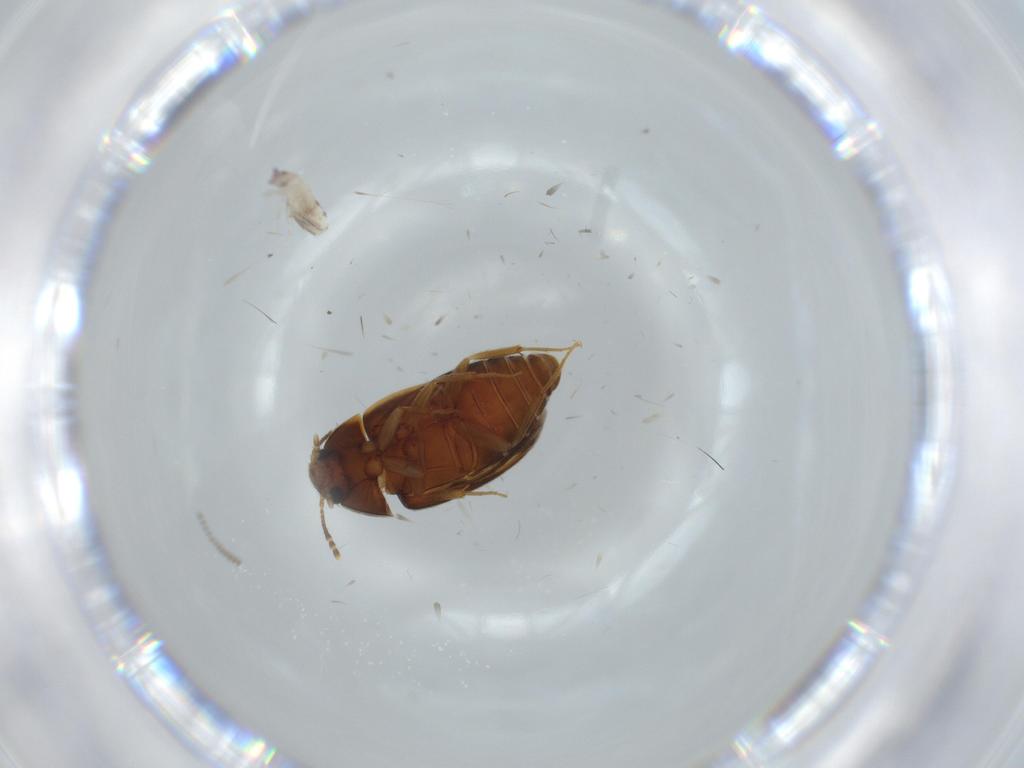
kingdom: Animalia
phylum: Arthropoda
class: Insecta
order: Coleoptera
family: Mycetophagidae
